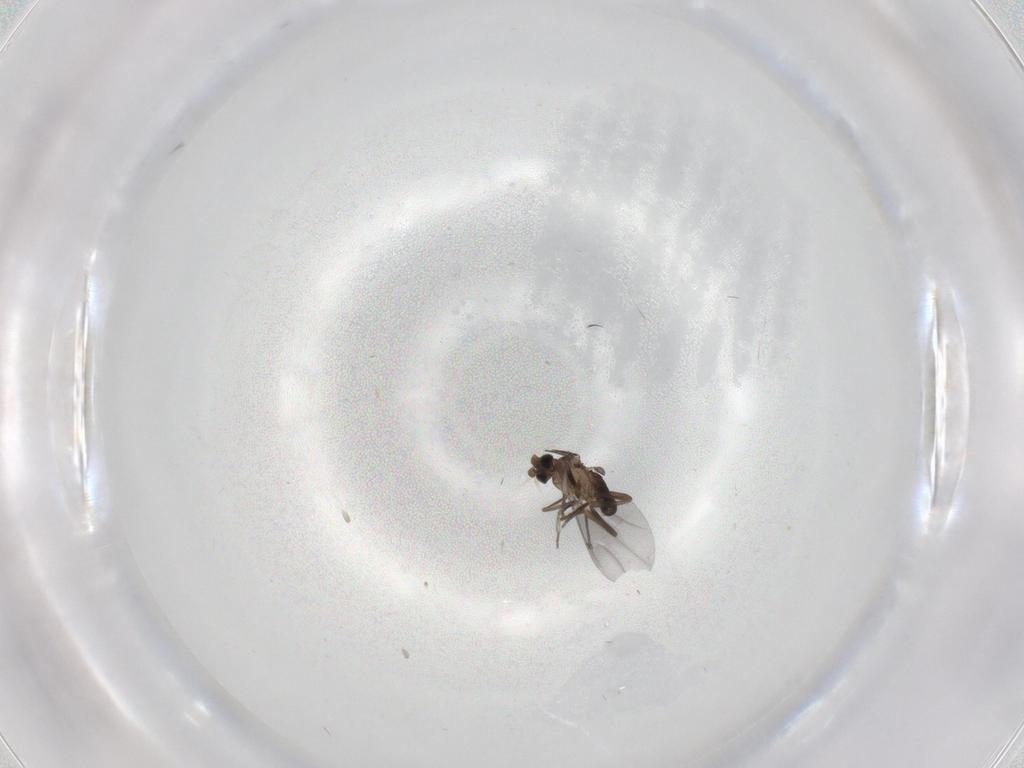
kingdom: Animalia
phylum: Arthropoda
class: Insecta
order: Diptera
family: Phoridae
